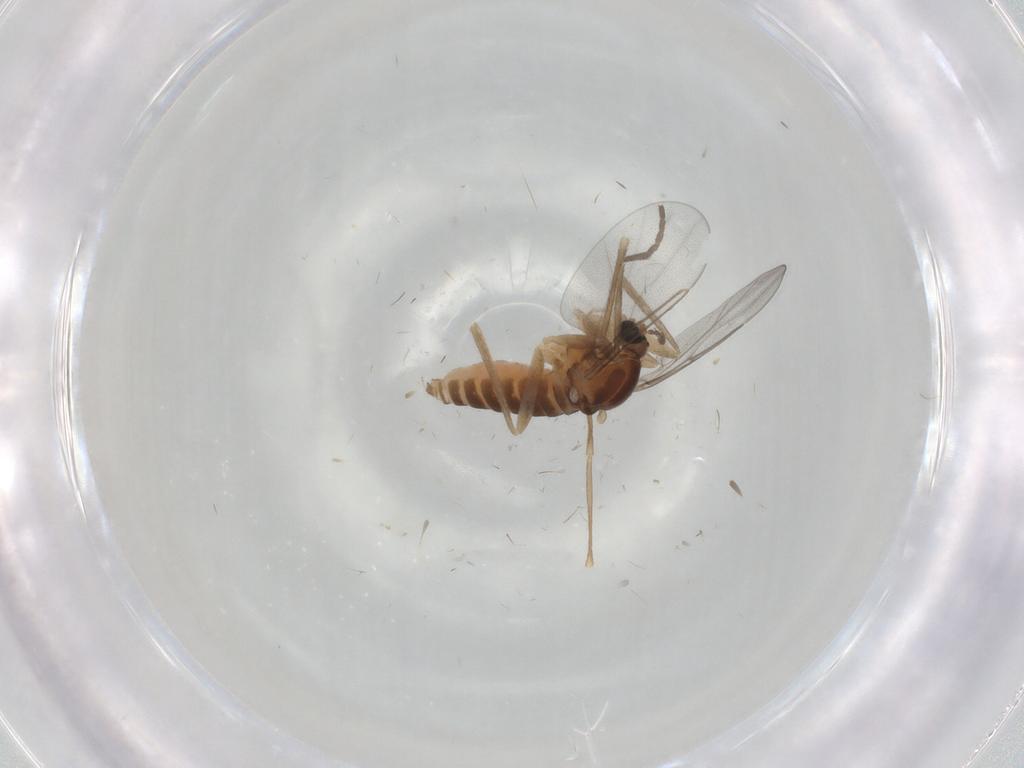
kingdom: Animalia
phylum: Arthropoda
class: Insecta
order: Diptera
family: Cecidomyiidae
